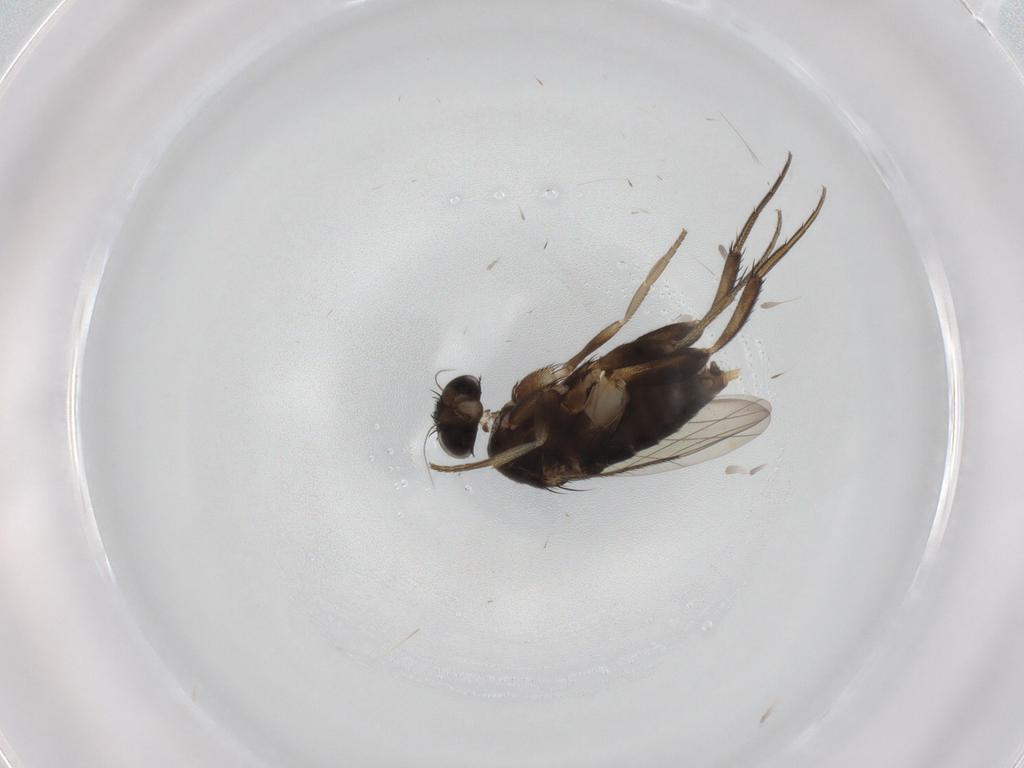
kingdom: Animalia
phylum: Arthropoda
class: Insecta
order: Diptera
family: Phoridae
